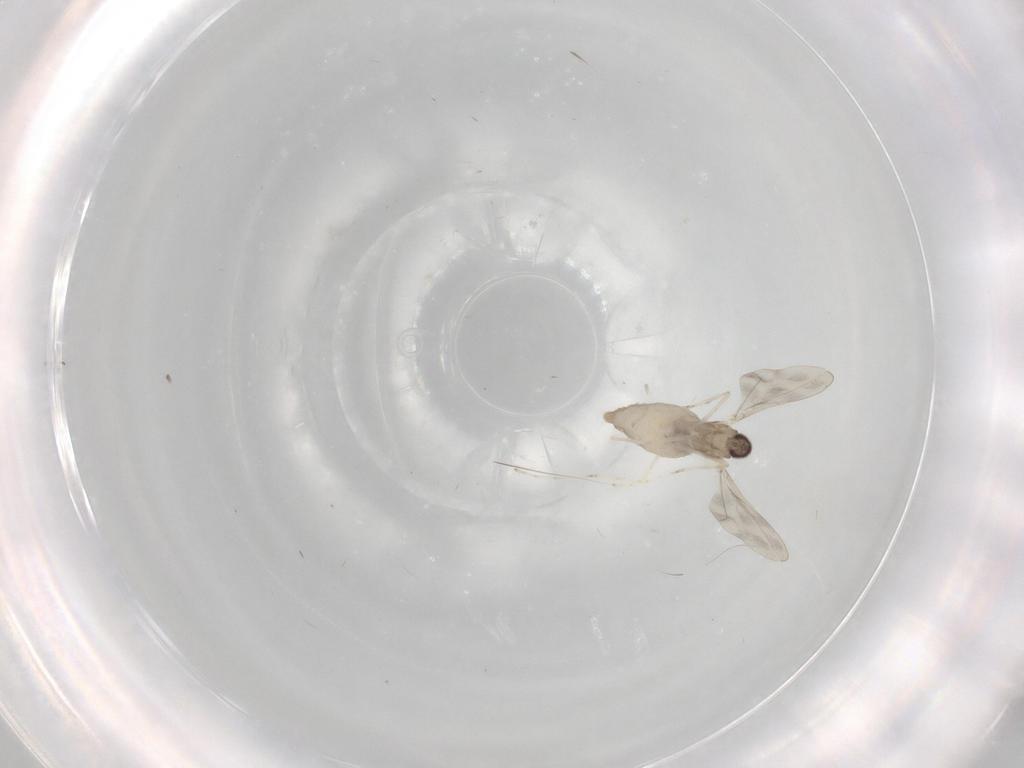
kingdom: Animalia
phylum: Arthropoda
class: Insecta
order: Diptera
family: Cecidomyiidae
